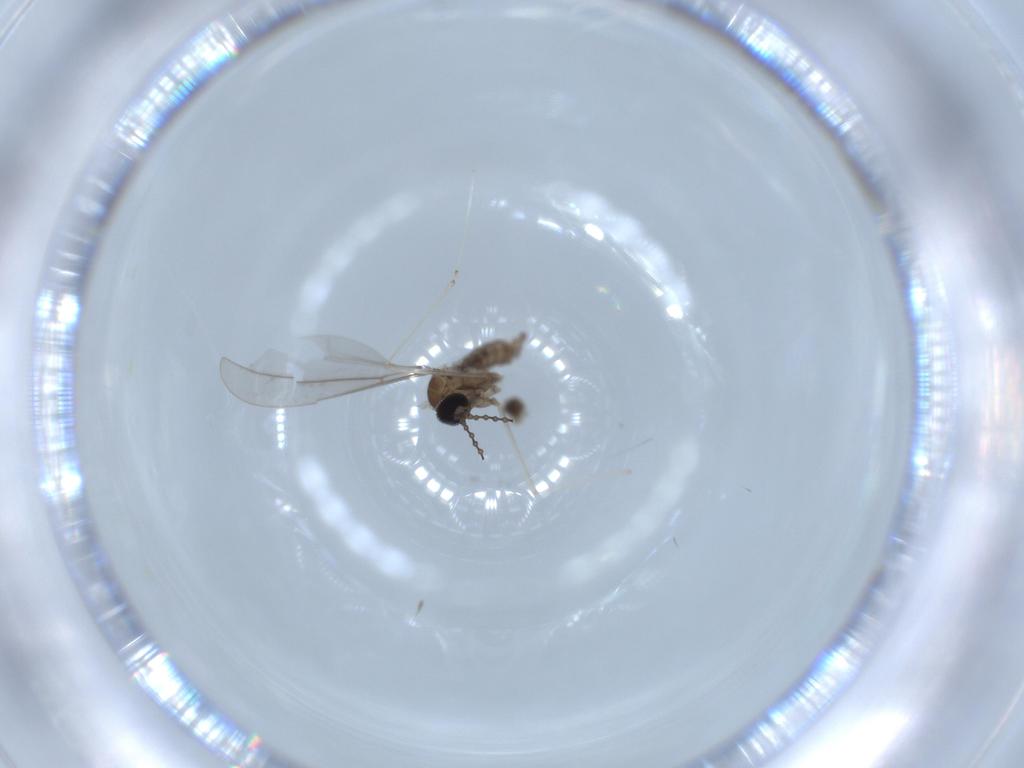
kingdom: Animalia
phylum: Arthropoda
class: Insecta
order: Diptera
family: Cecidomyiidae
